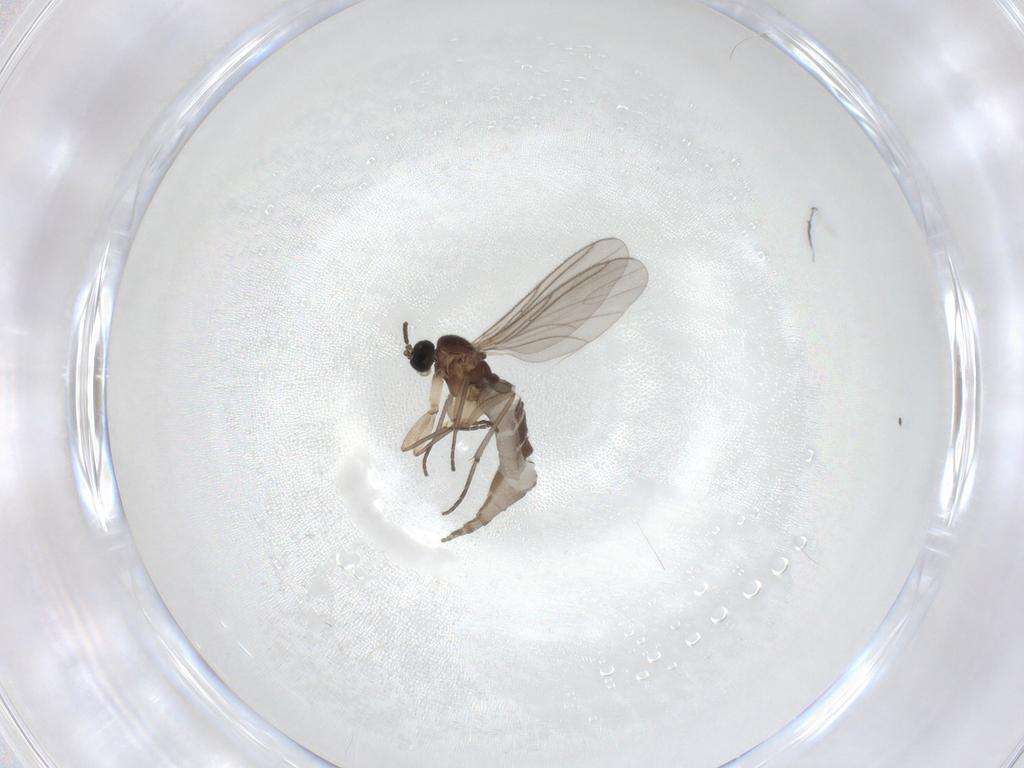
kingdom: Animalia
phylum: Arthropoda
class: Insecta
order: Diptera
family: Sciaridae
